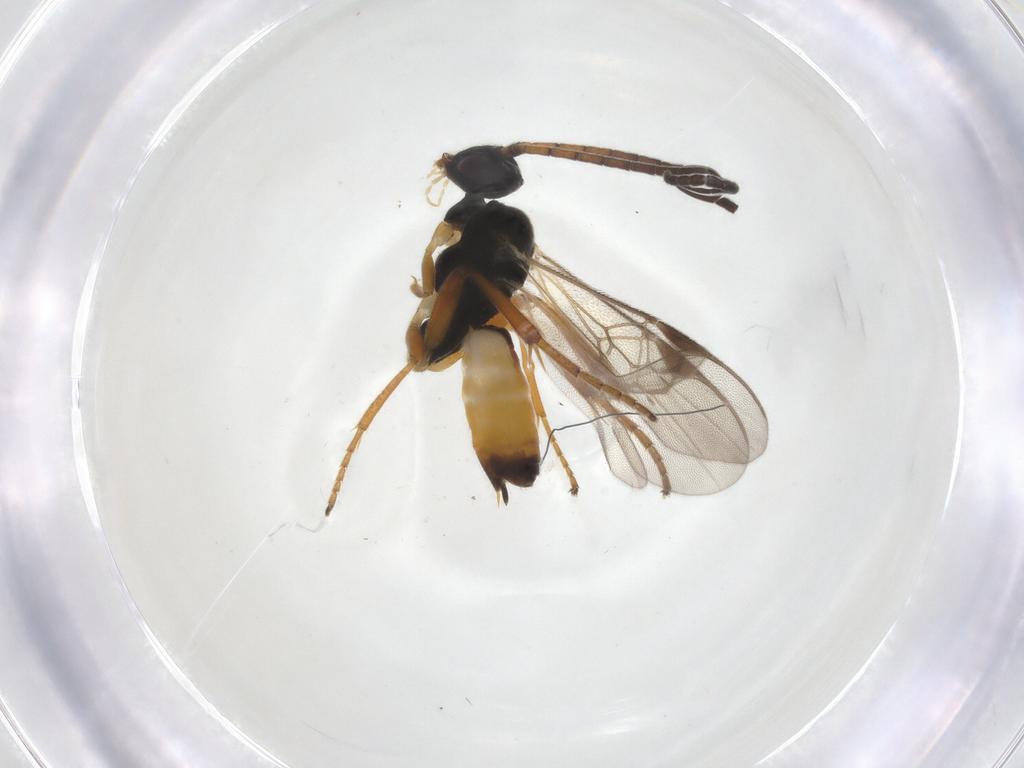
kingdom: Animalia
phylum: Arthropoda
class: Insecta
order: Hymenoptera
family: Braconidae
